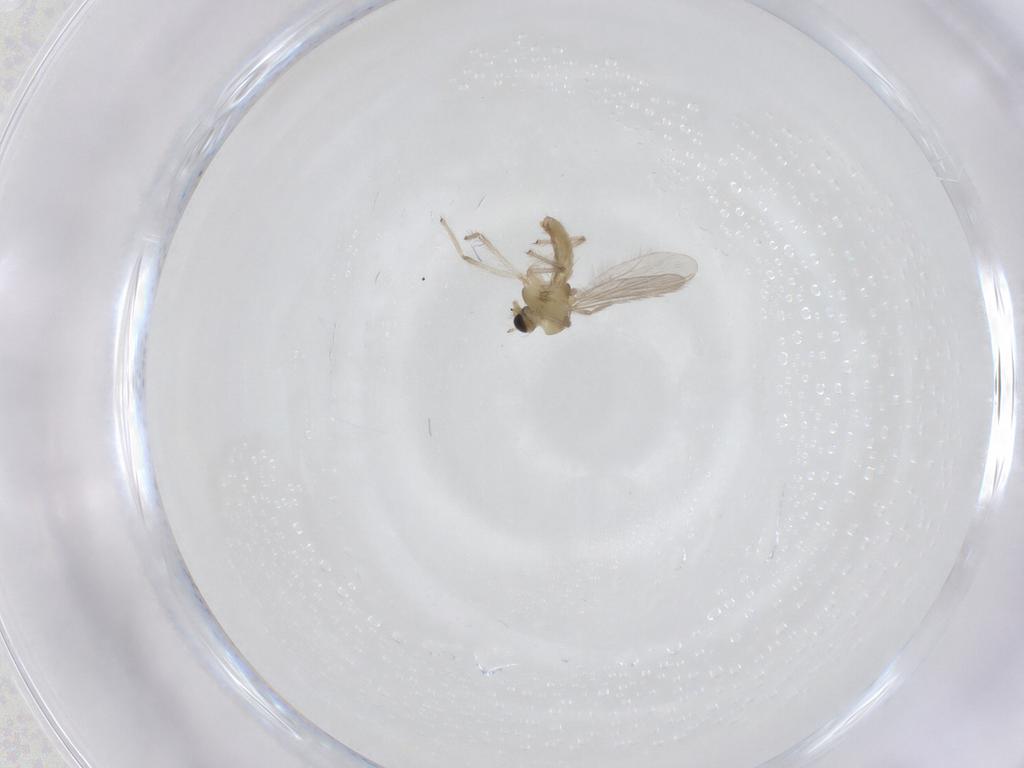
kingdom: Animalia
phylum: Arthropoda
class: Insecta
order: Diptera
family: Chironomidae
